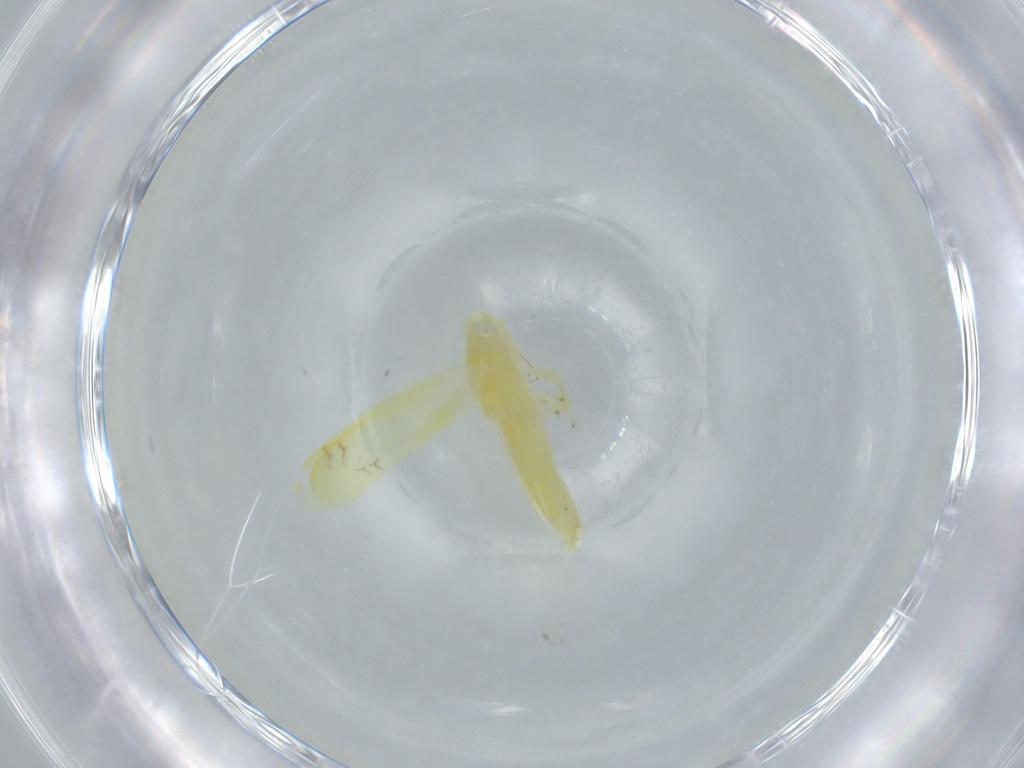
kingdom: Animalia
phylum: Arthropoda
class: Insecta
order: Hemiptera
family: Cicadellidae
